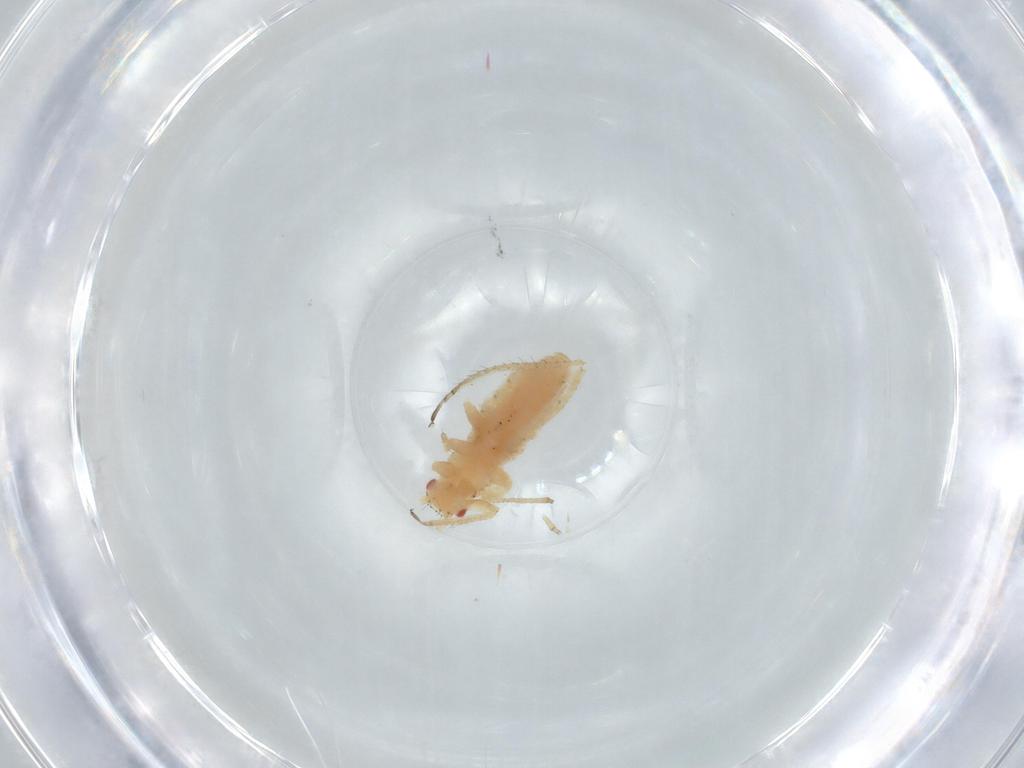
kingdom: Animalia
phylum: Arthropoda
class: Insecta
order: Hemiptera
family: Aphididae
